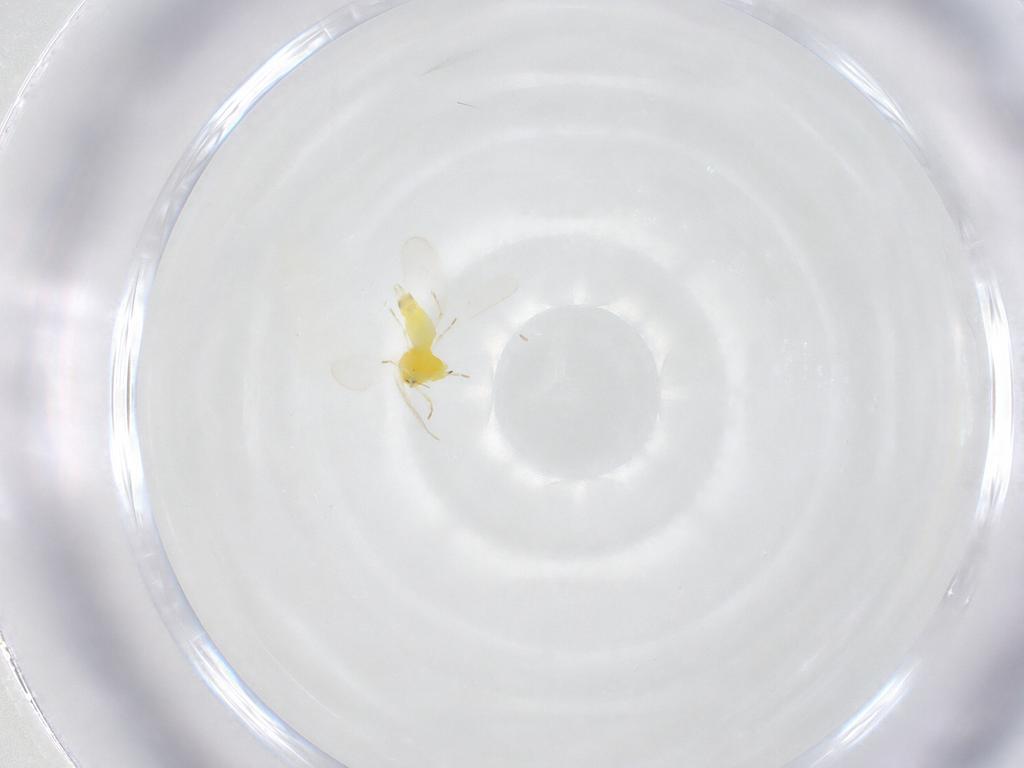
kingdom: Animalia
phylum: Arthropoda
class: Insecta
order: Hemiptera
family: Aleyrodidae
